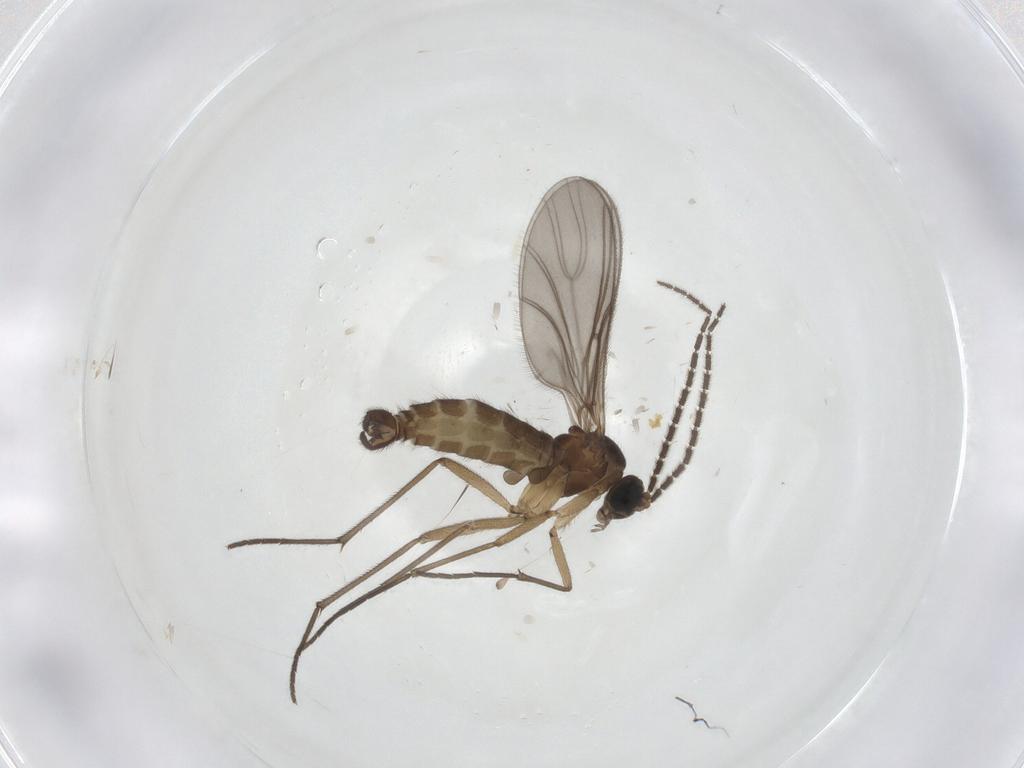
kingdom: Animalia
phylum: Arthropoda
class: Insecta
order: Diptera
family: Sciaridae
